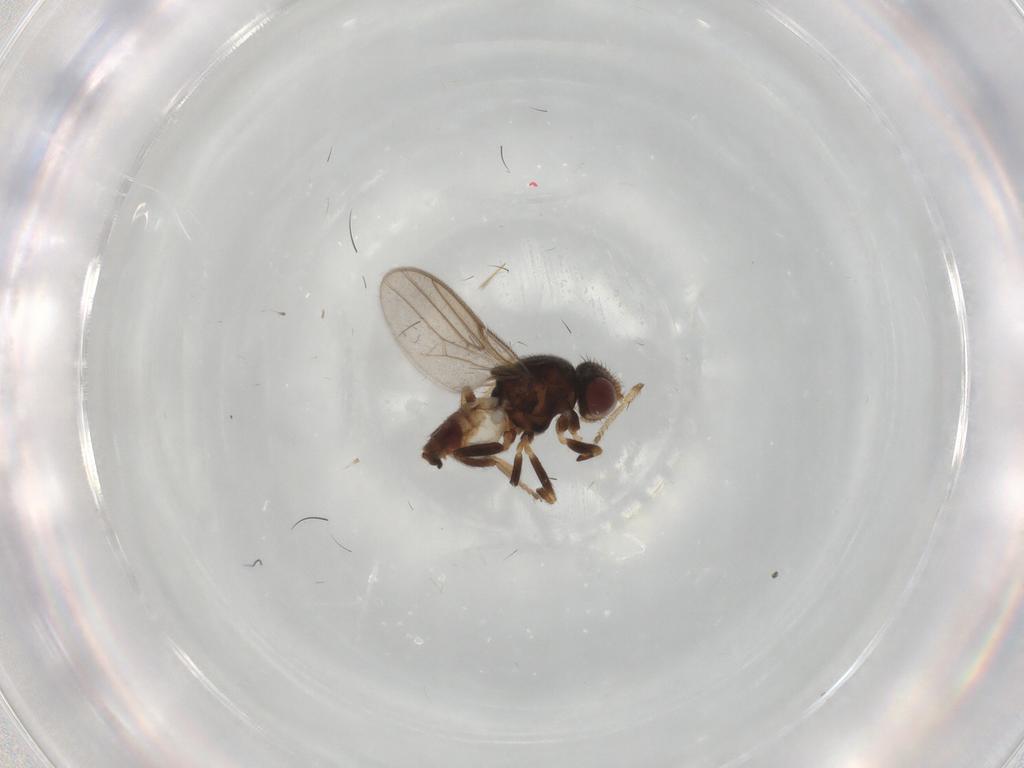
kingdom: Animalia
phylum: Arthropoda
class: Insecta
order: Diptera
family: Chloropidae
